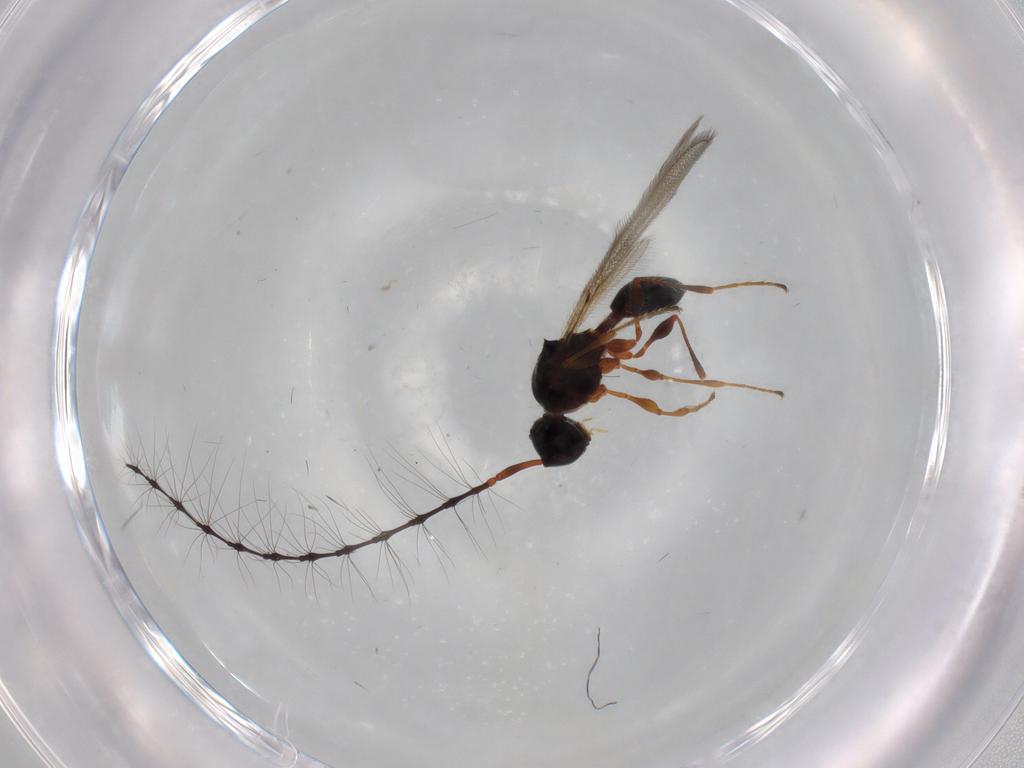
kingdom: Animalia
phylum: Arthropoda
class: Insecta
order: Hymenoptera
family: Diapriidae
